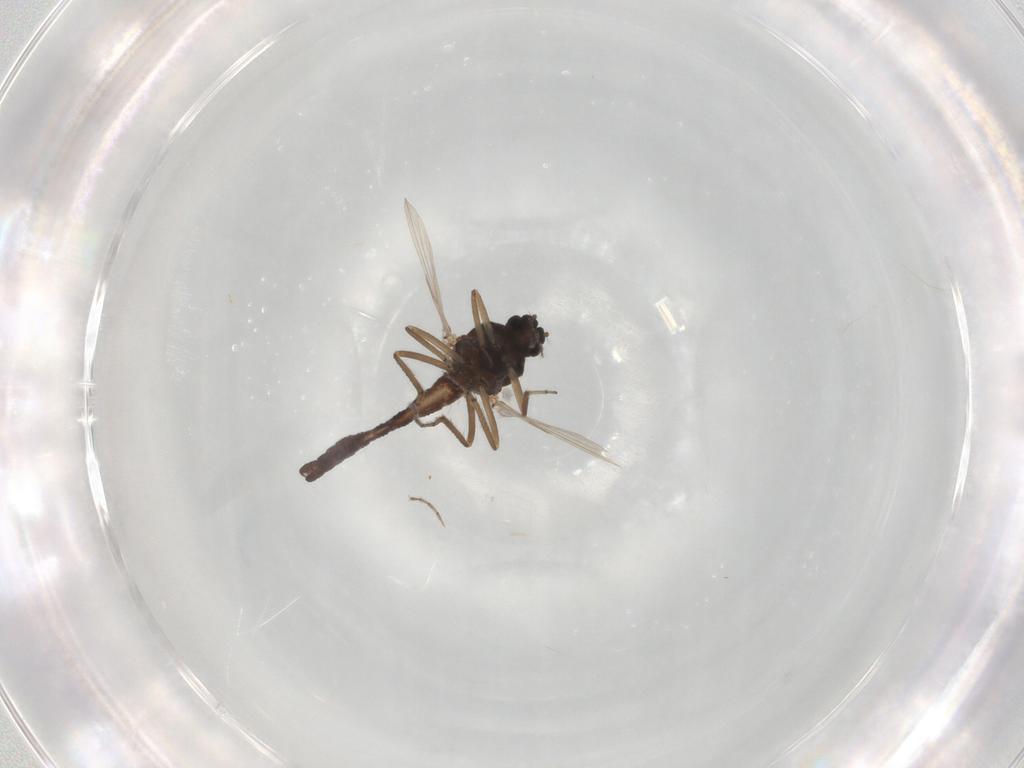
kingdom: Animalia
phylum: Arthropoda
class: Insecta
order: Diptera
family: Ceratopogonidae
